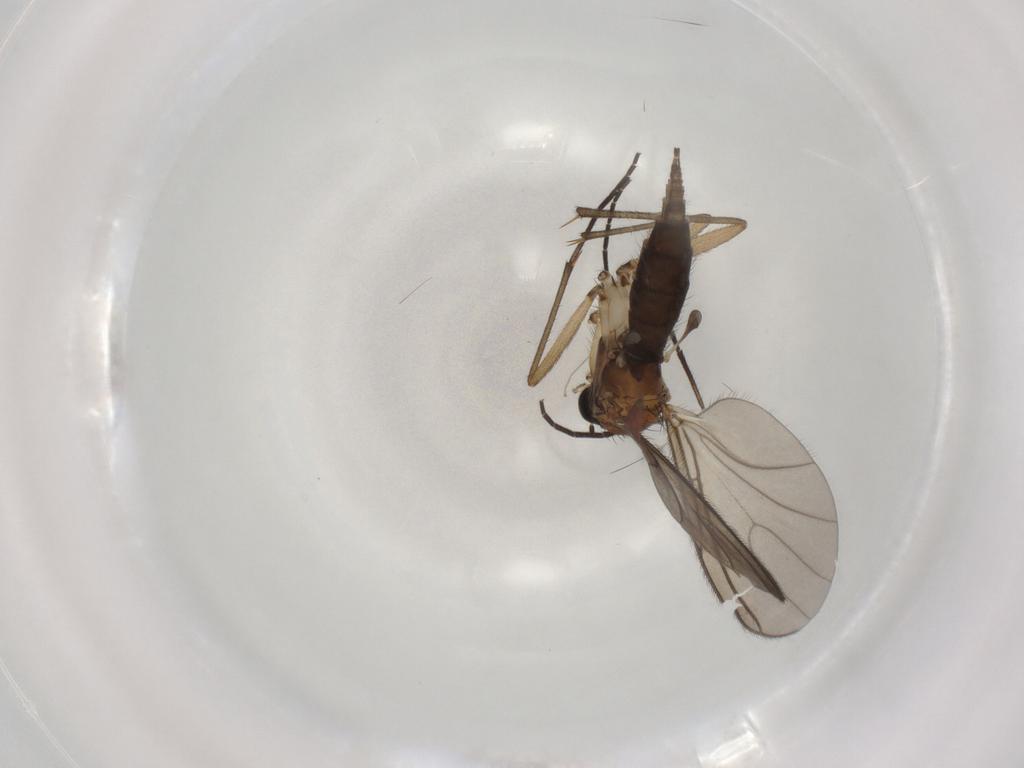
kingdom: Animalia
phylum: Arthropoda
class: Insecta
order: Diptera
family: Sciaridae
